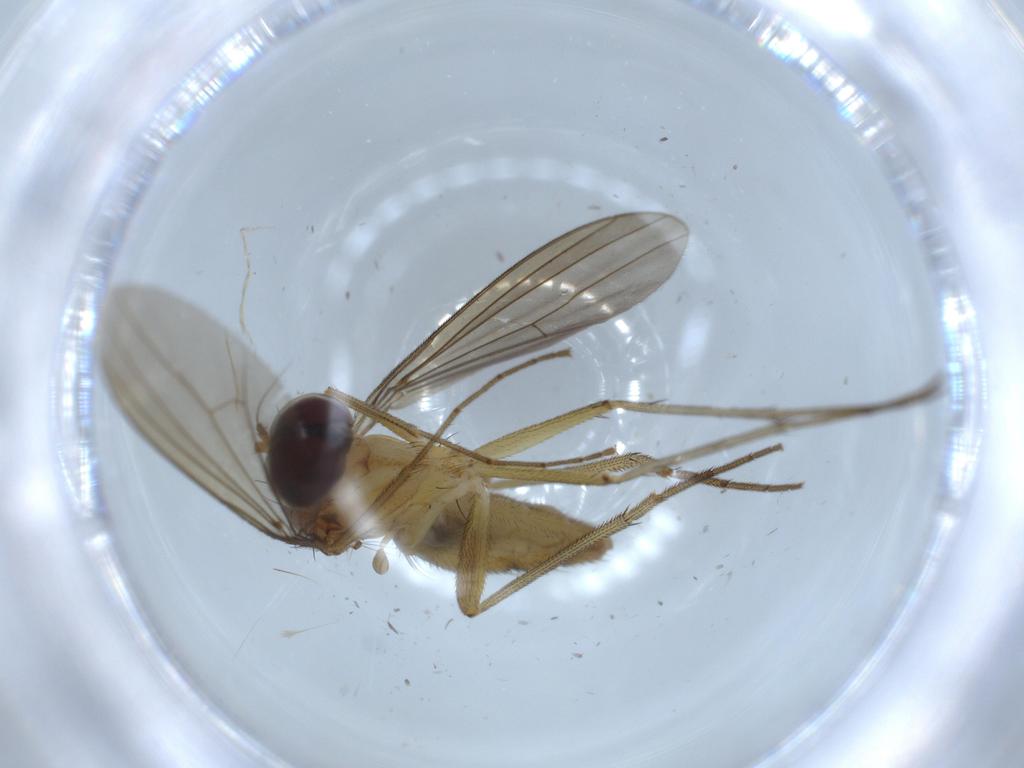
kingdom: Animalia
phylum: Arthropoda
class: Insecta
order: Diptera
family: Dolichopodidae
